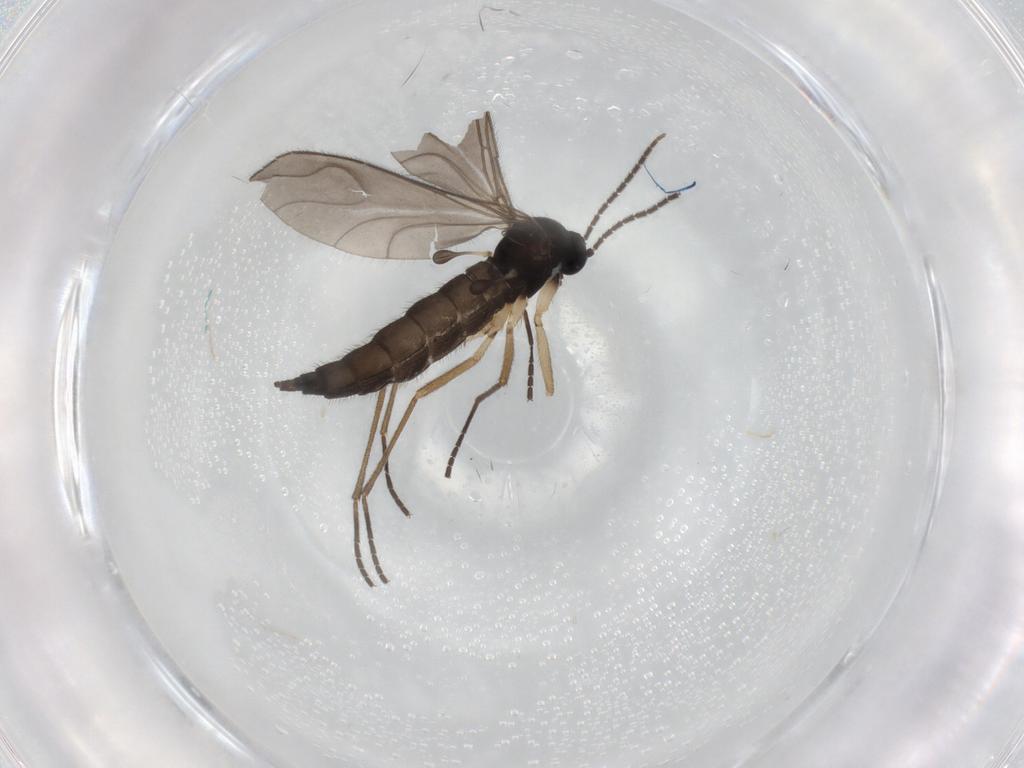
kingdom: Animalia
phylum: Arthropoda
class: Insecta
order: Diptera
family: Sciaridae
